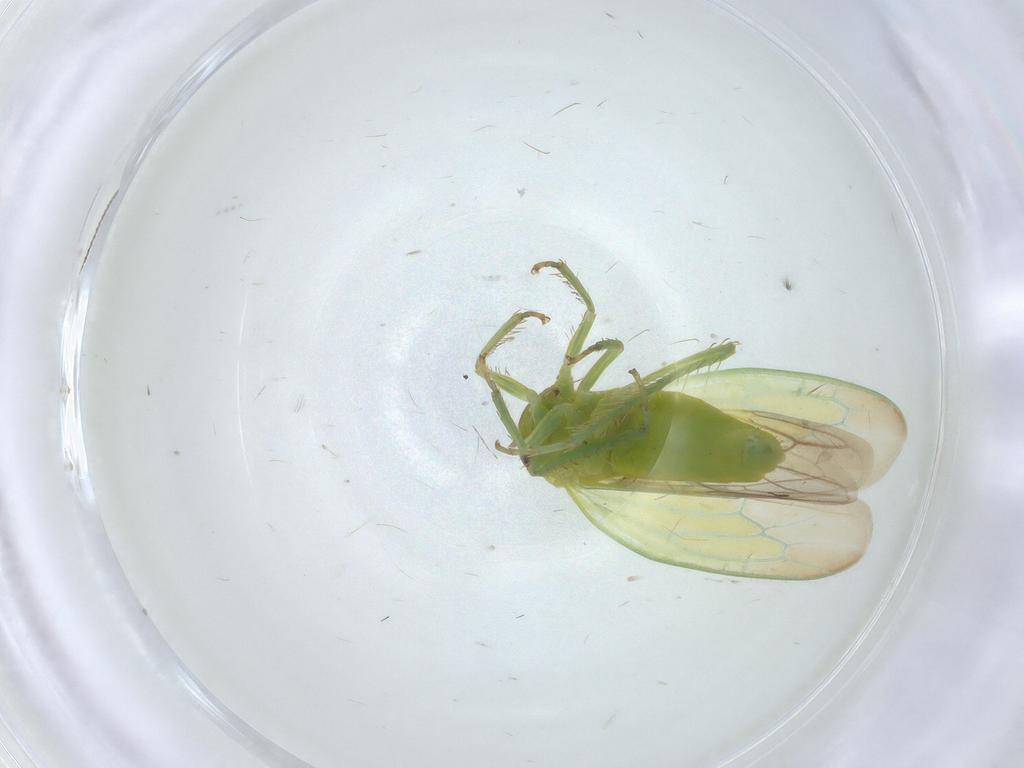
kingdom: Animalia
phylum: Arthropoda
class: Insecta
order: Hemiptera
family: Cicadellidae
